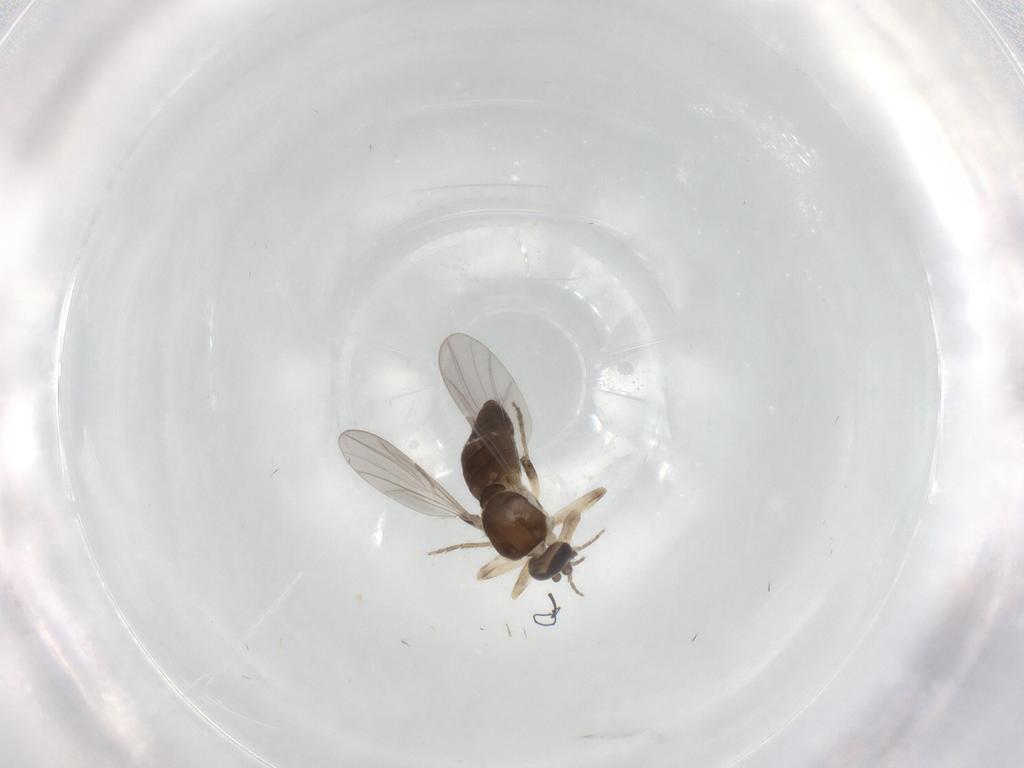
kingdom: Animalia
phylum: Arthropoda
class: Insecta
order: Diptera
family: Ceratopogonidae
